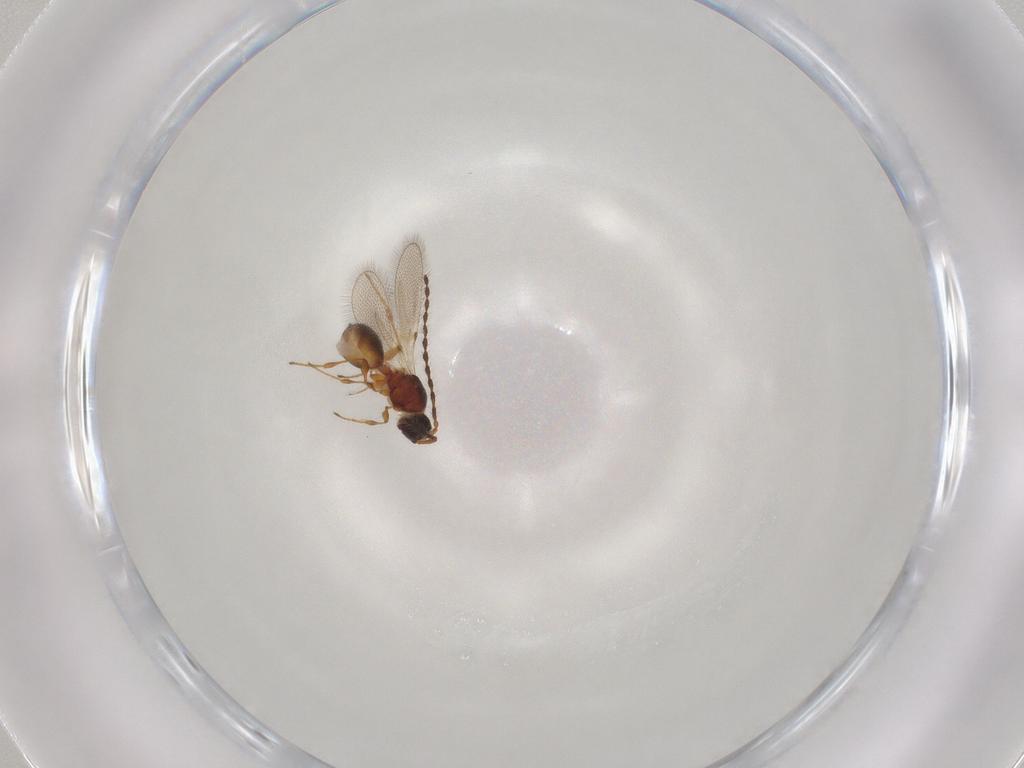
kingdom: Animalia
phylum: Arthropoda
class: Insecta
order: Hymenoptera
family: Diapriidae
